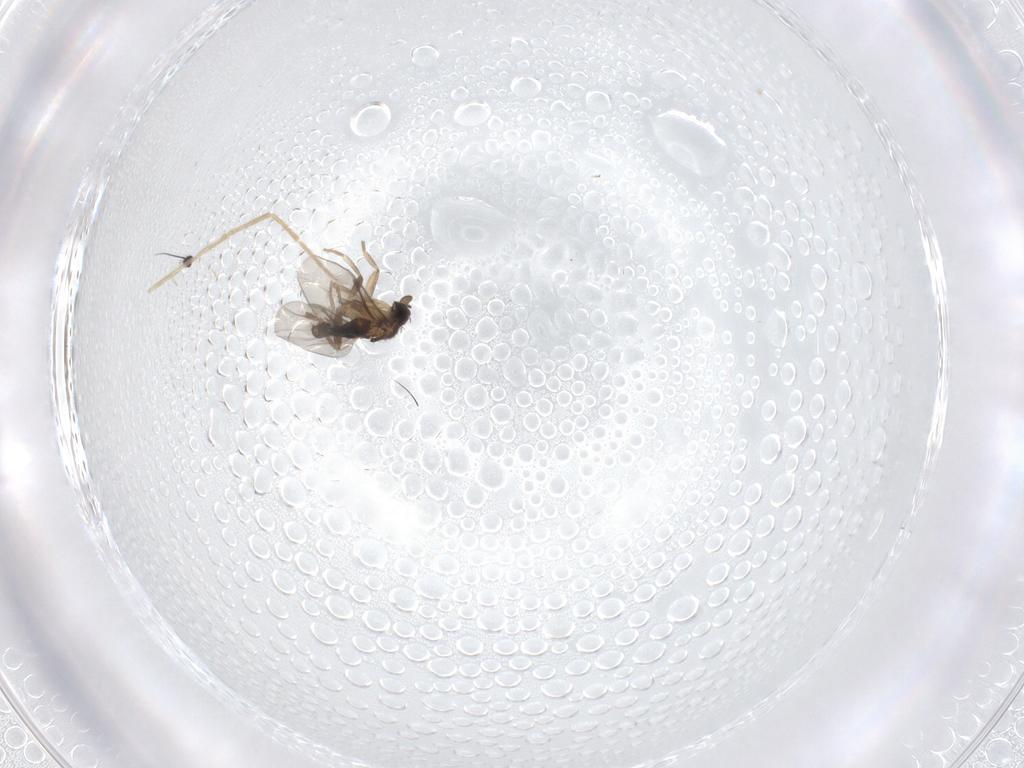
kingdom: Animalia
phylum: Arthropoda
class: Insecta
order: Diptera
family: Chironomidae
